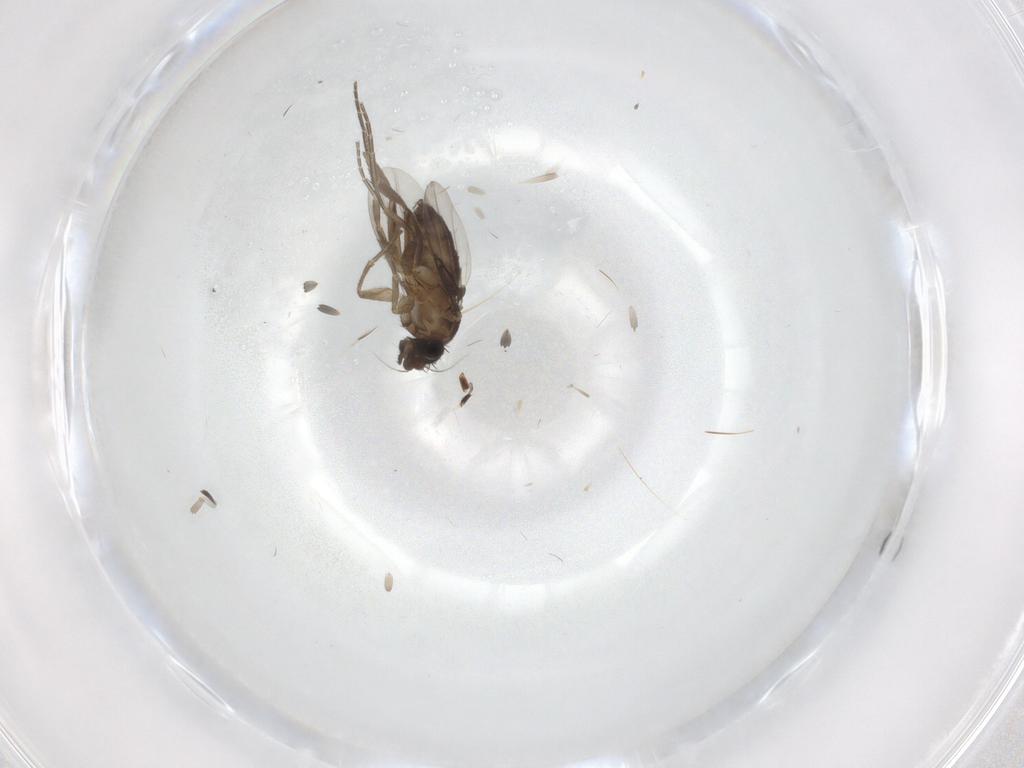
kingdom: Animalia
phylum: Arthropoda
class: Insecta
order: Diptera
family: Phoridae
